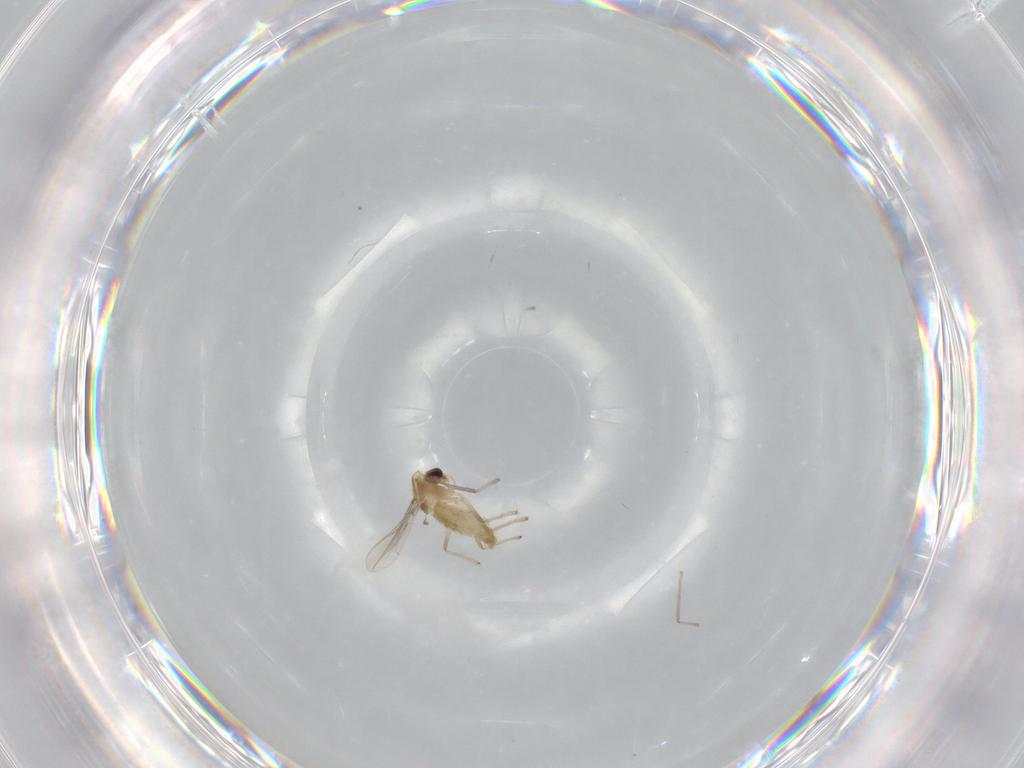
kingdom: Animalia
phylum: Arthropoda
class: Insecta
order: Diptera
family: Chironomidae
